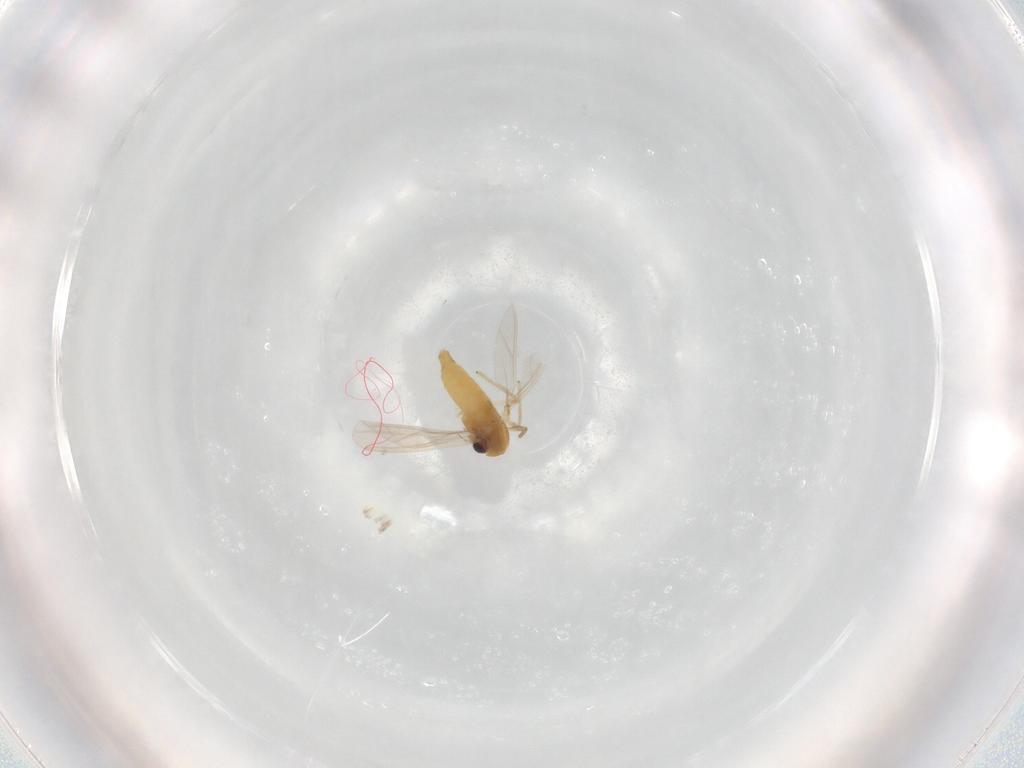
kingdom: Animalia
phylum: Arthropoda
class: Insecta
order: Diptera
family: Chironomidae
